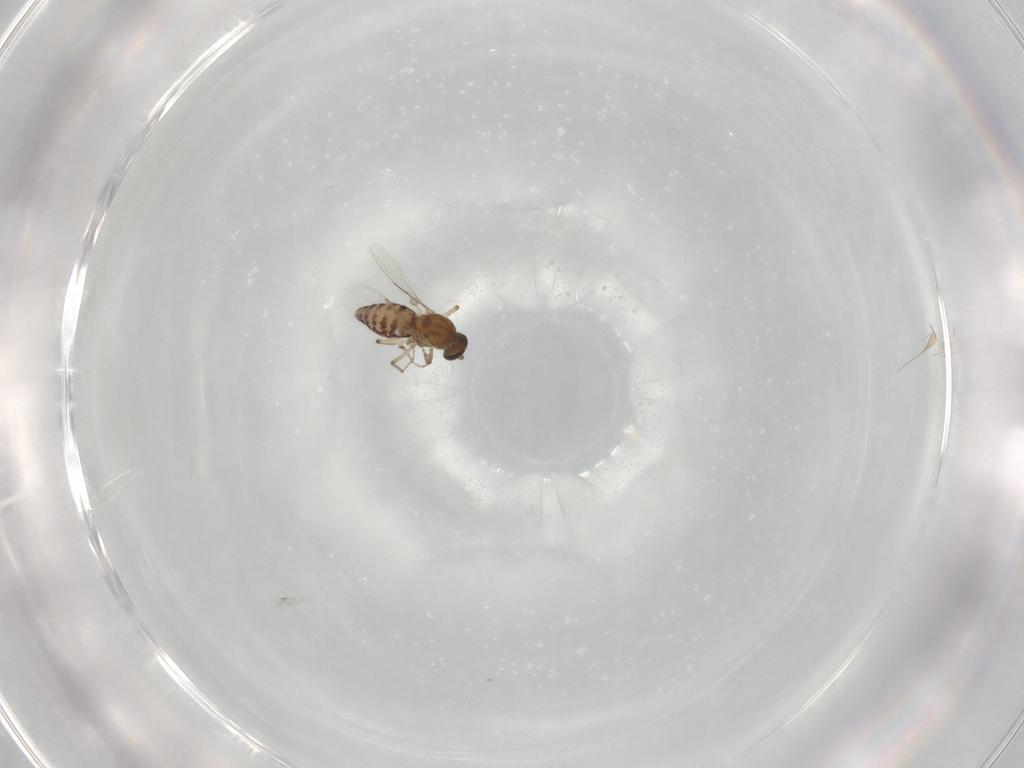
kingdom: Animalia
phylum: Arthropoda
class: Insecta
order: Diptera
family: Ceratopogonidae
